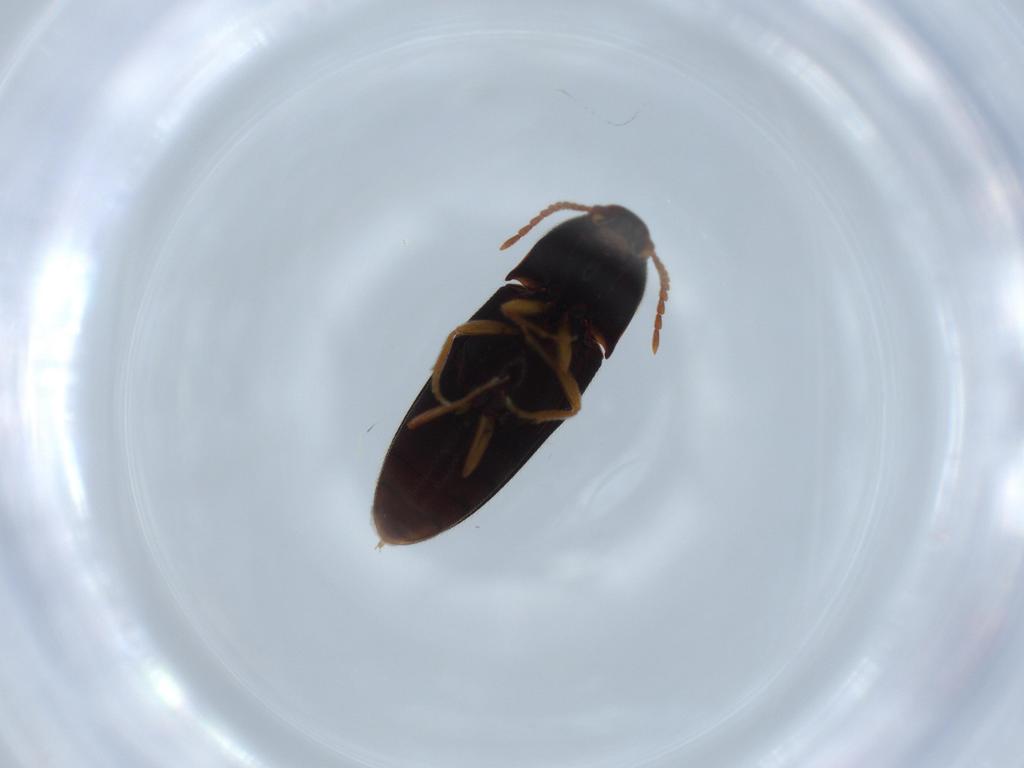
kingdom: Animalia
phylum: Arthropoda
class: Insecta
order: Coleoptera
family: Elateridae
